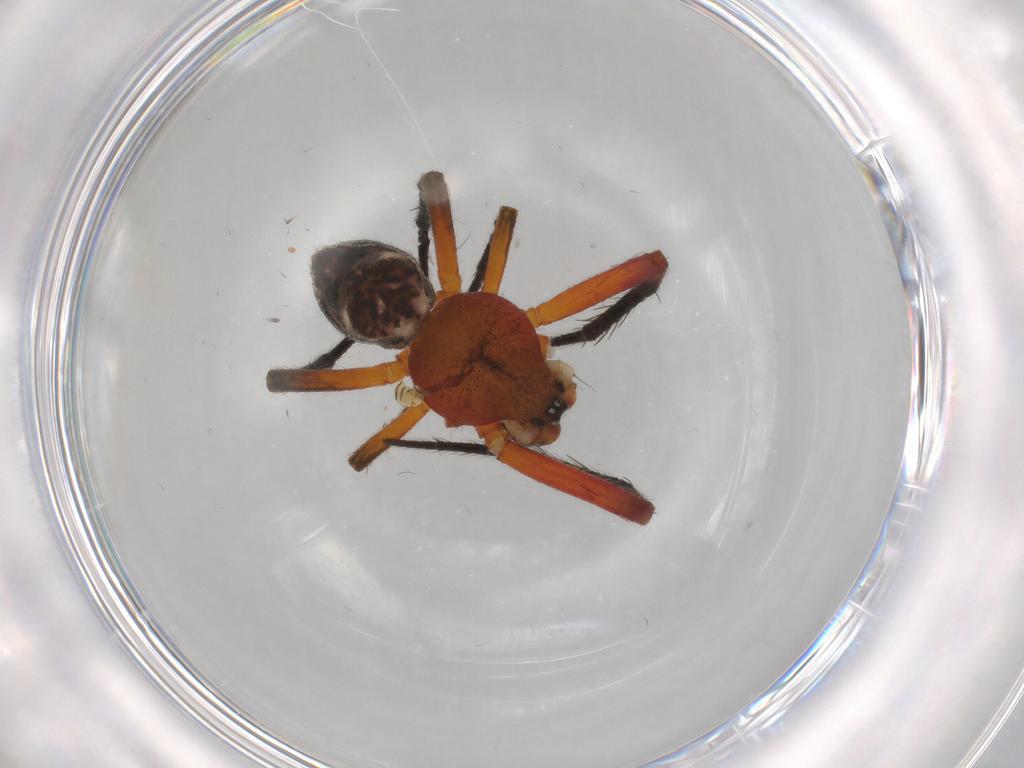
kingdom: Animalia
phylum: Arthropoda
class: Arachnida
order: Araneae
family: Araneidae
